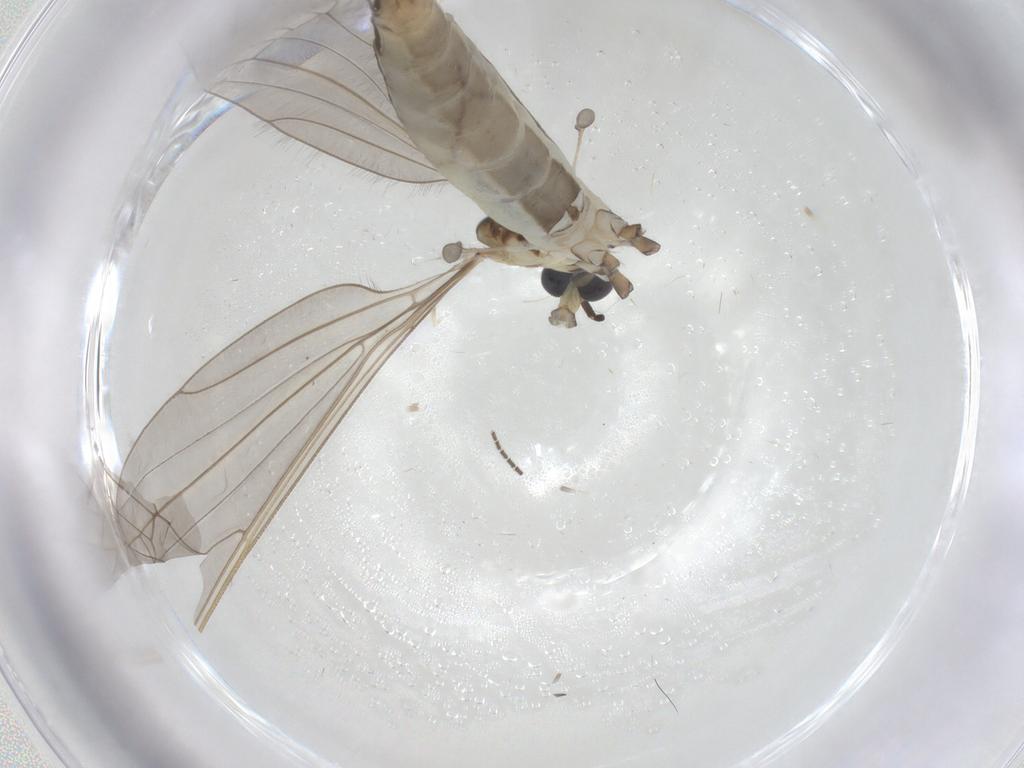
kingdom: Animalia
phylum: Arthropoda
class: Insecta
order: Diptera
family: Limoniidae
